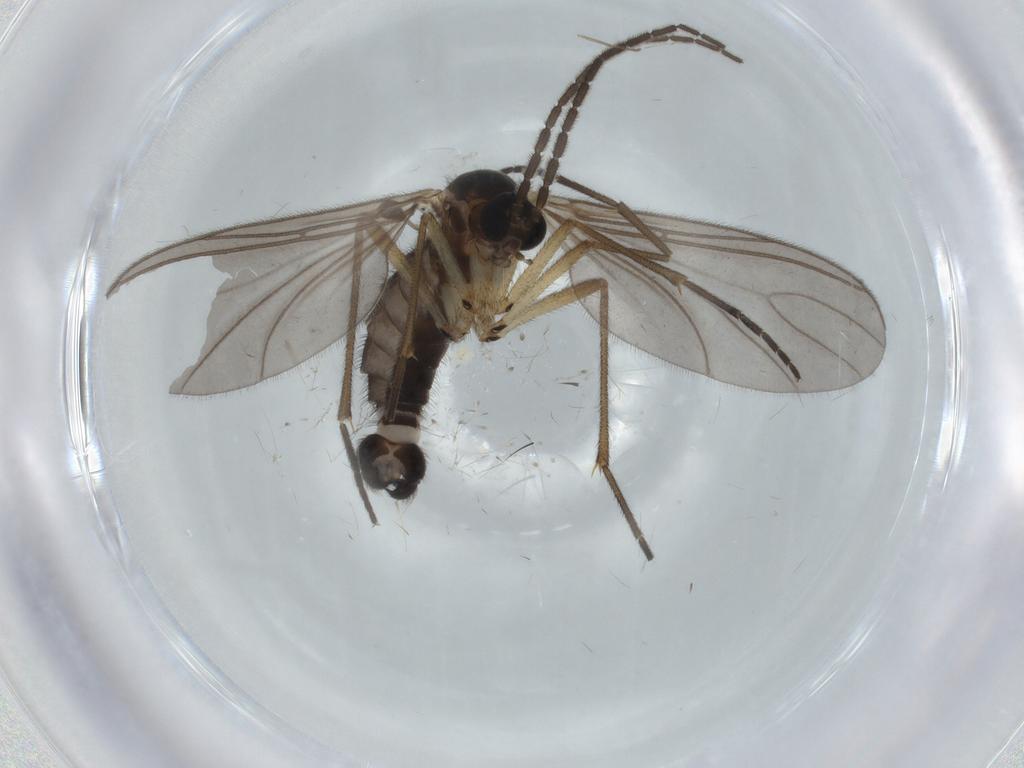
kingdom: Animalia
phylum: Arthropoda
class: Insecta
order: Diptera
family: Sciaridae
